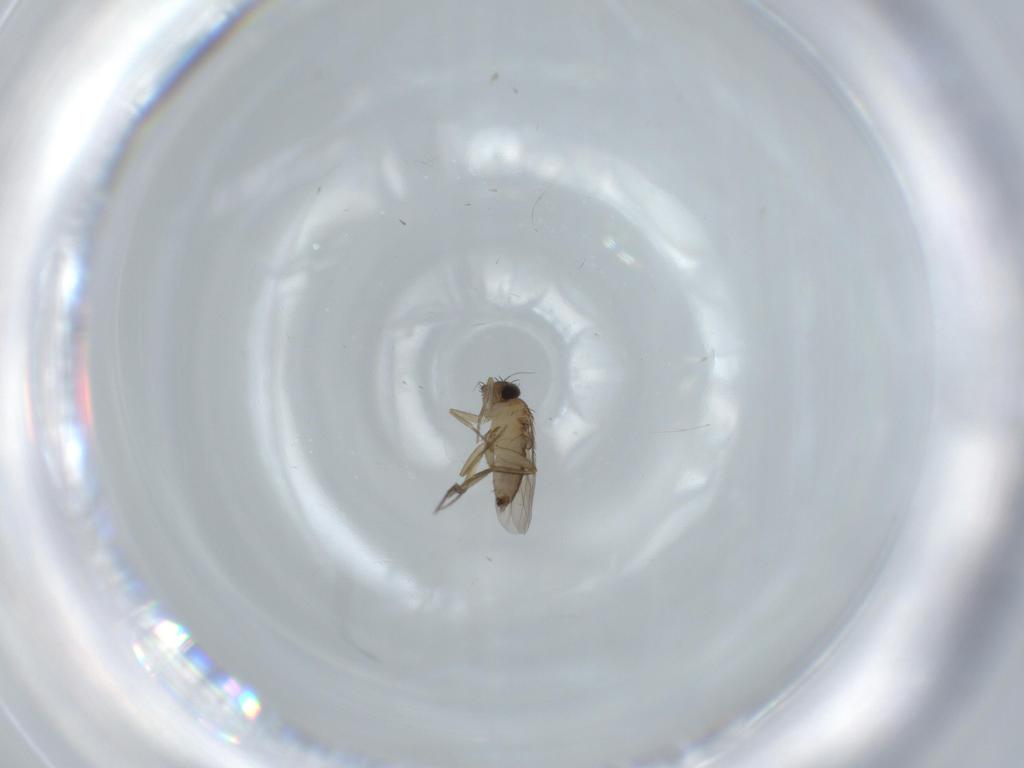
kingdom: Animalia
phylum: Arthropoda
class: Insecta
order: Diptera
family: Phoridae
